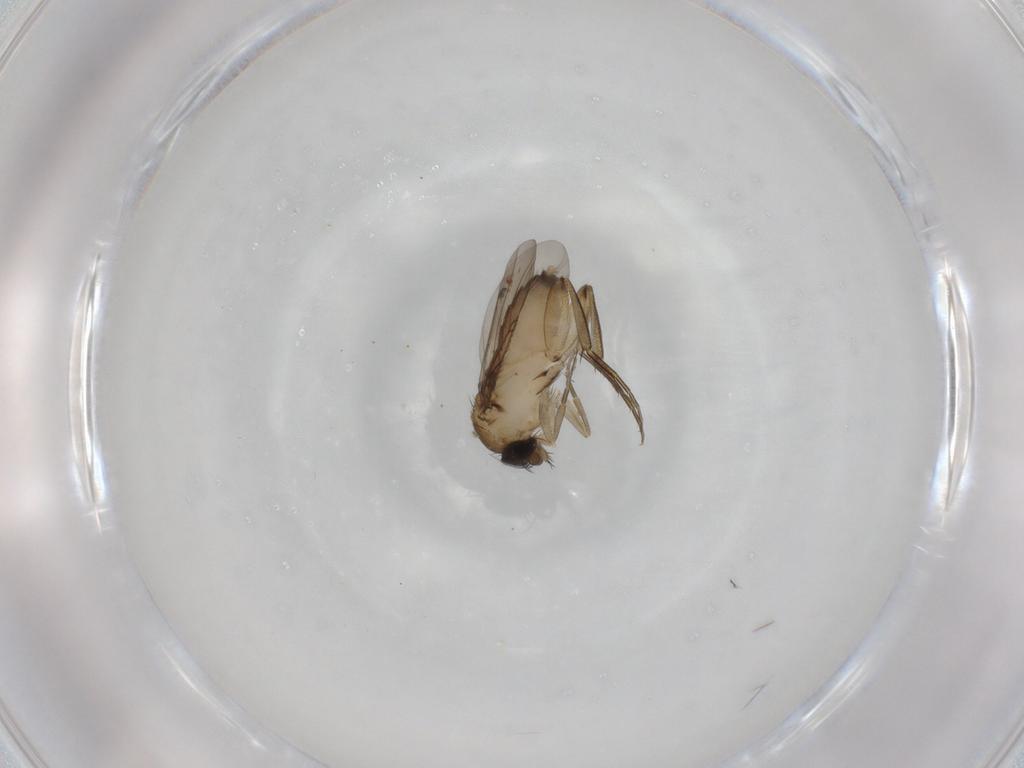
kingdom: Animalia
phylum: Arthropoda
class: Insecta
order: Diptera
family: Phoridae
